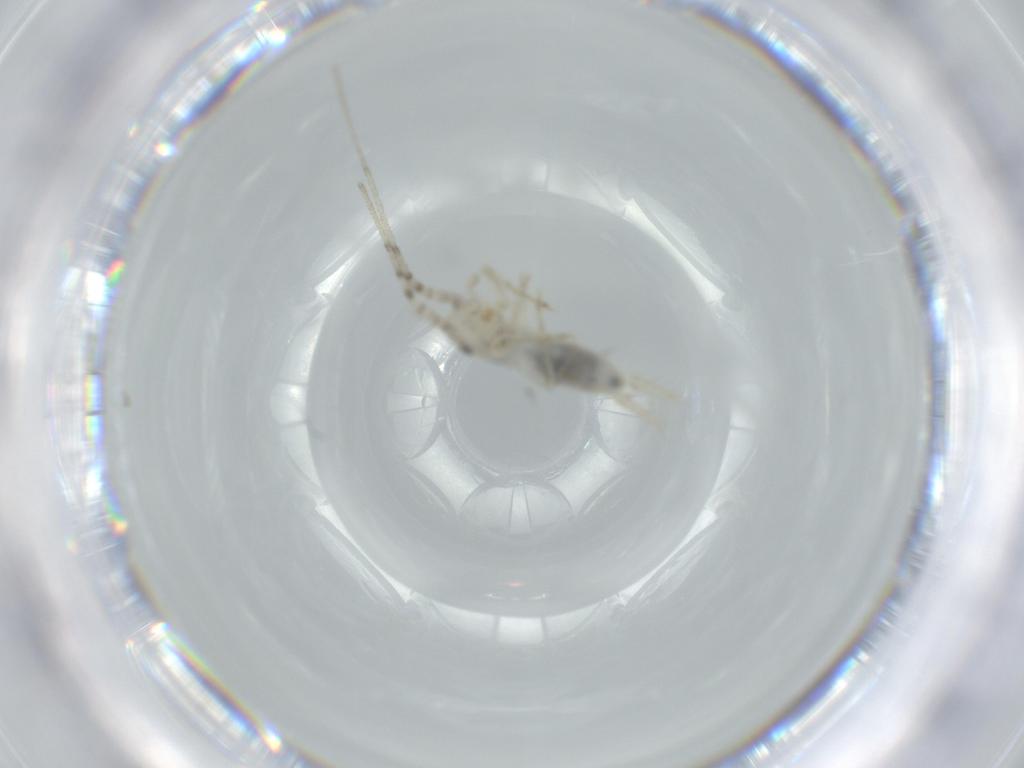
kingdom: Animalia
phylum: Arthropoda
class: Insecta
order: Orthoptera
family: Trigonidiidae
